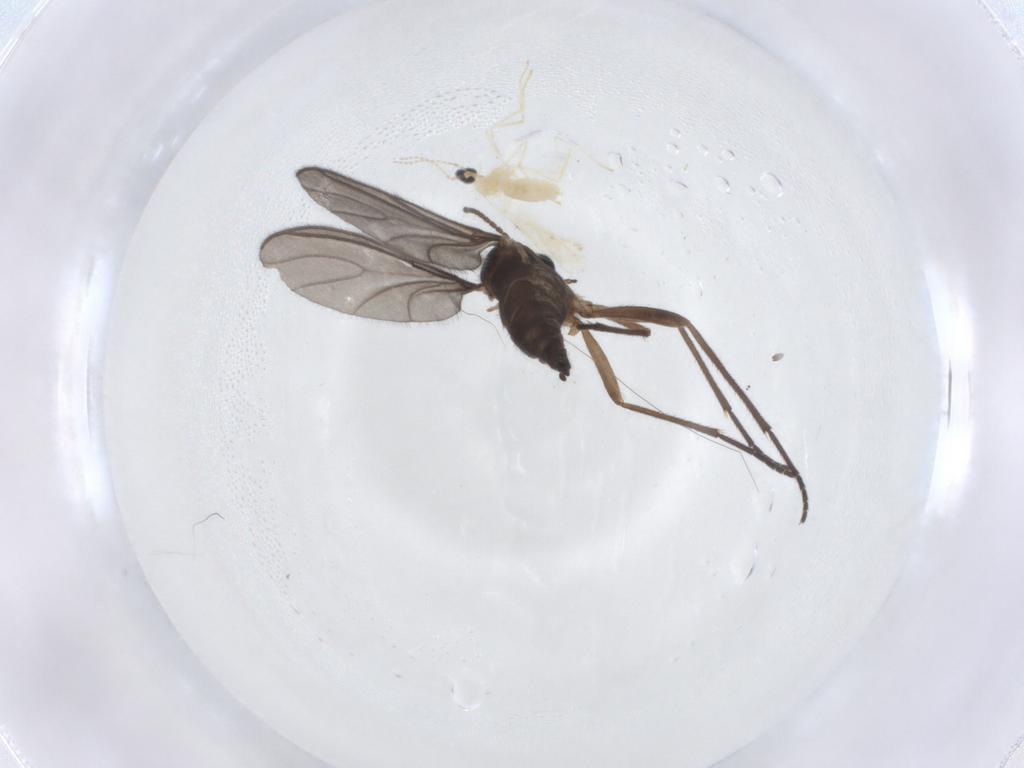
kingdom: Animalia
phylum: Arthropoda
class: Insecta
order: Diptera
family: Cecidomyiidae
